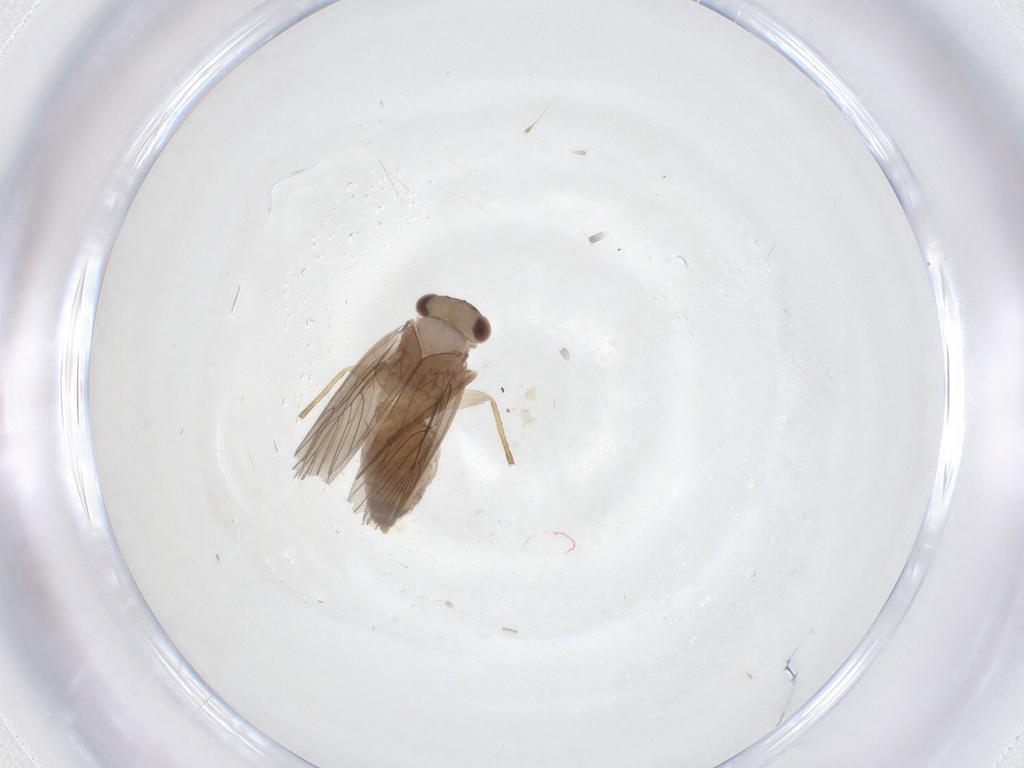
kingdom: Animalia
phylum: Arthropoda
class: Insecta
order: Psocodea
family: Lepidopsocidae
